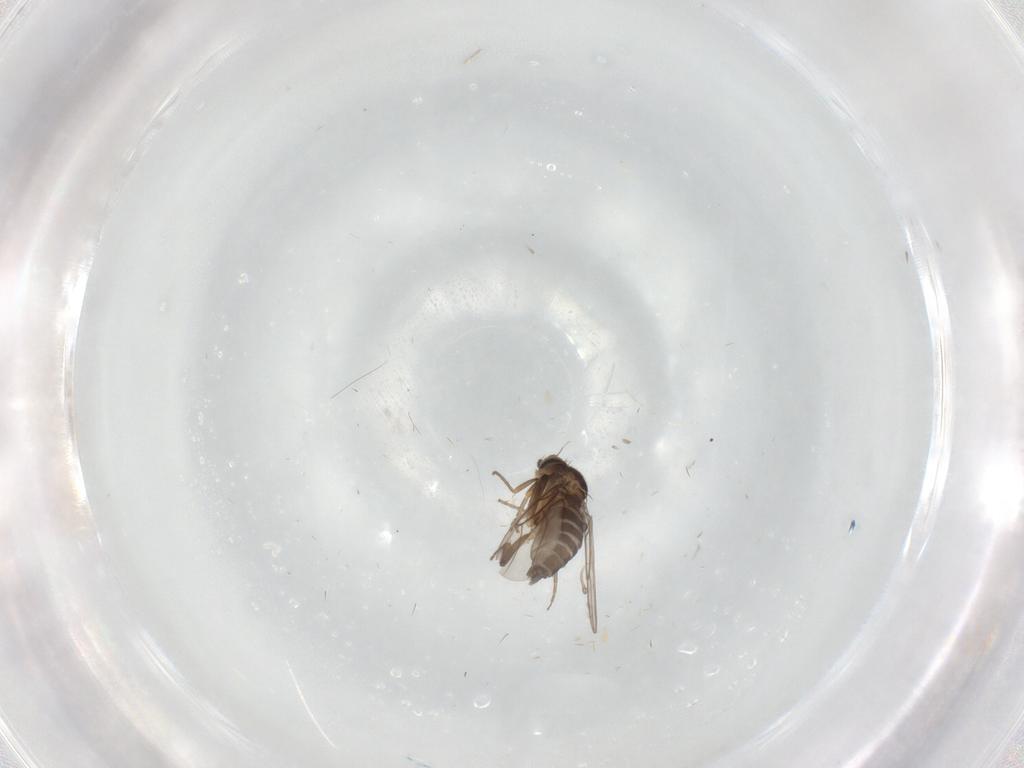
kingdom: Animalia
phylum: Arthropoda
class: Insecta
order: Diptera
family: Phoridae
